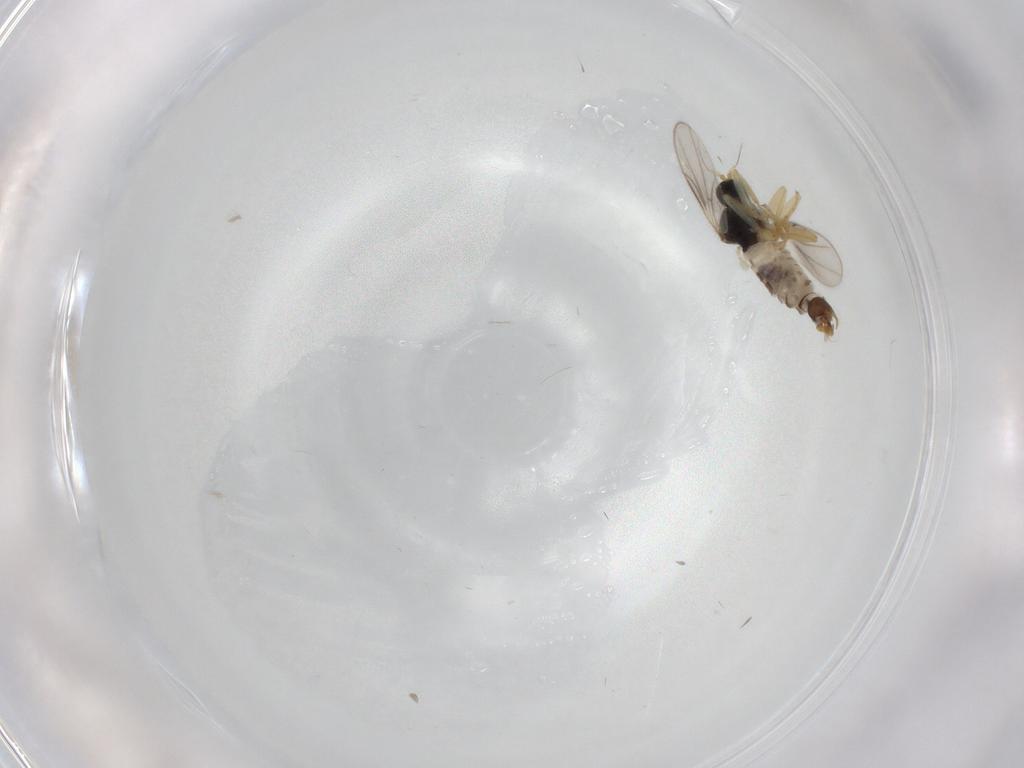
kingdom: Animalia
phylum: Arthropoda
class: Insecta
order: Diptera
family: Hybotidae
